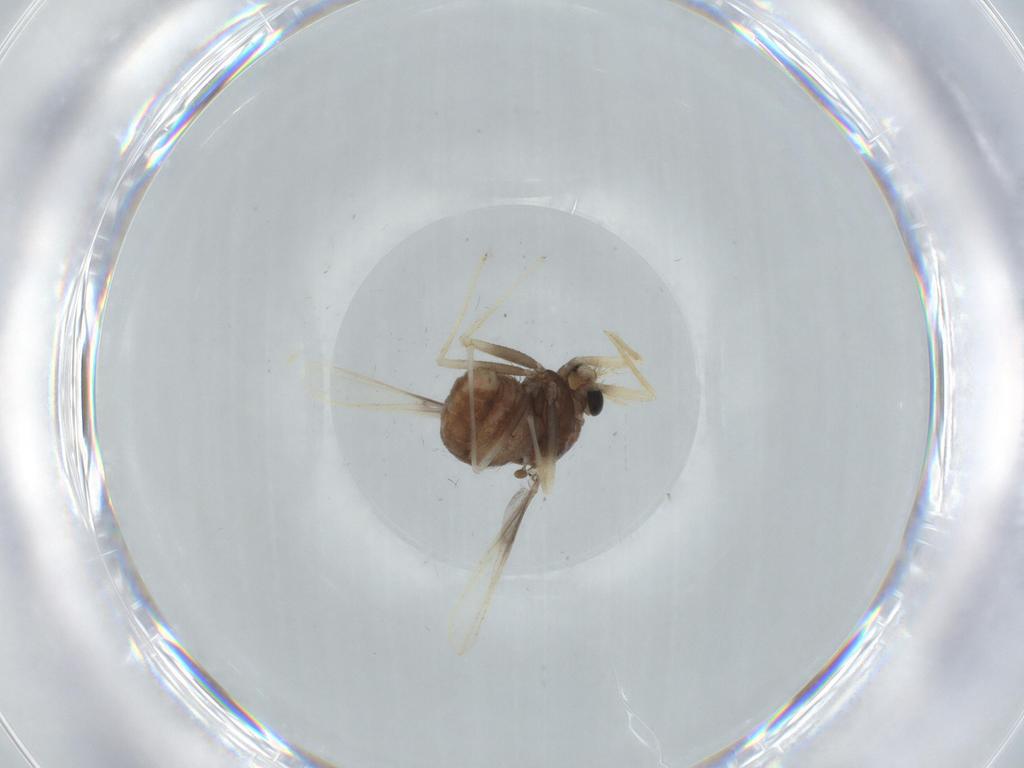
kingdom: Animalia
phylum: Arthropoda
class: Insecta
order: Diptera
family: Chironomidae
